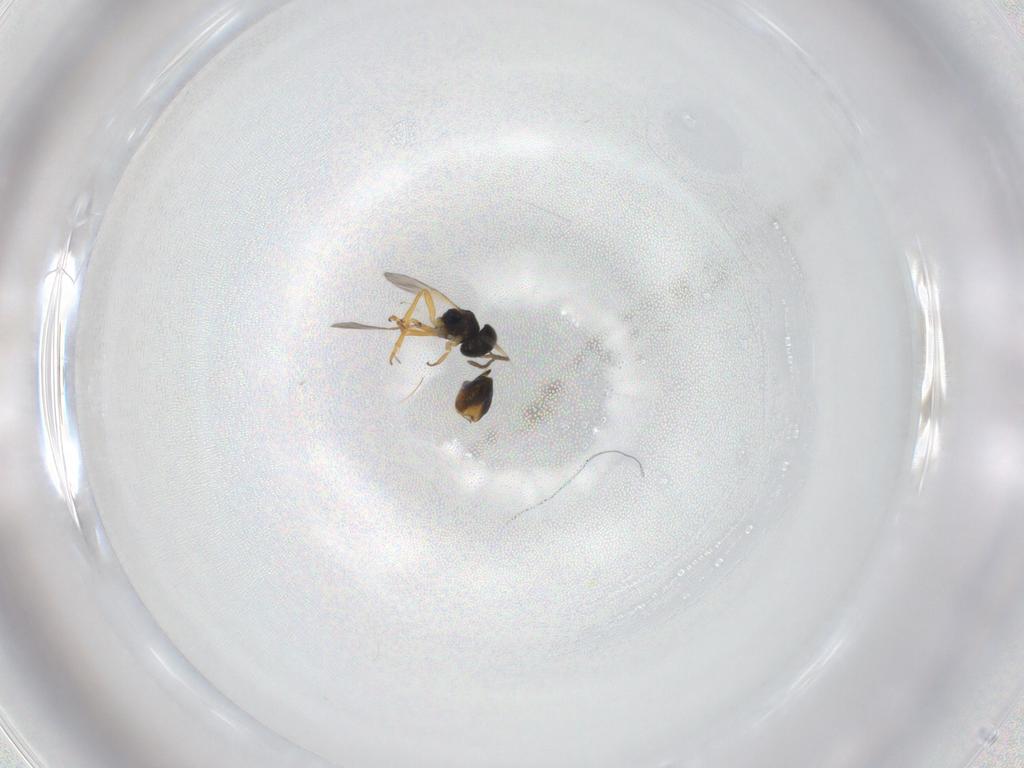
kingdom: Animalia
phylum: Arthropoda
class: Insecta
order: Hymenoptera
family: Encyrtidae
